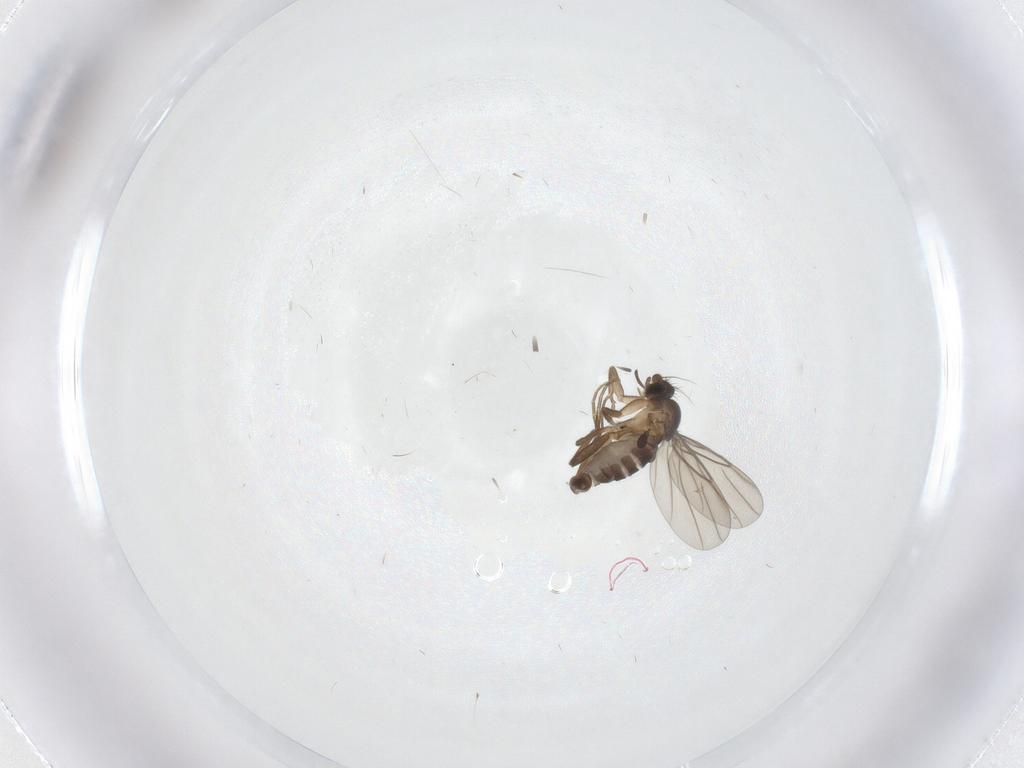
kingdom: Animalia
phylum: Arthropoda
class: Insecta
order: Diptera
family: Phoridae
